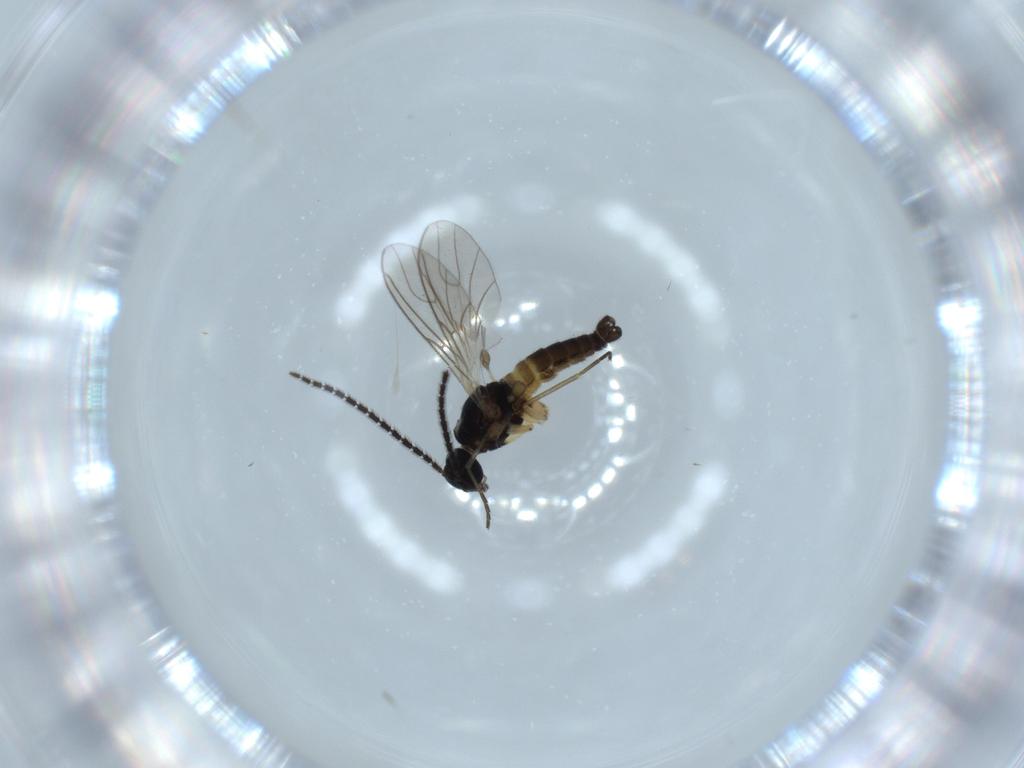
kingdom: Animalia
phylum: Arthropoda
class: Insecta
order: Diptera
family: Sciaridae
